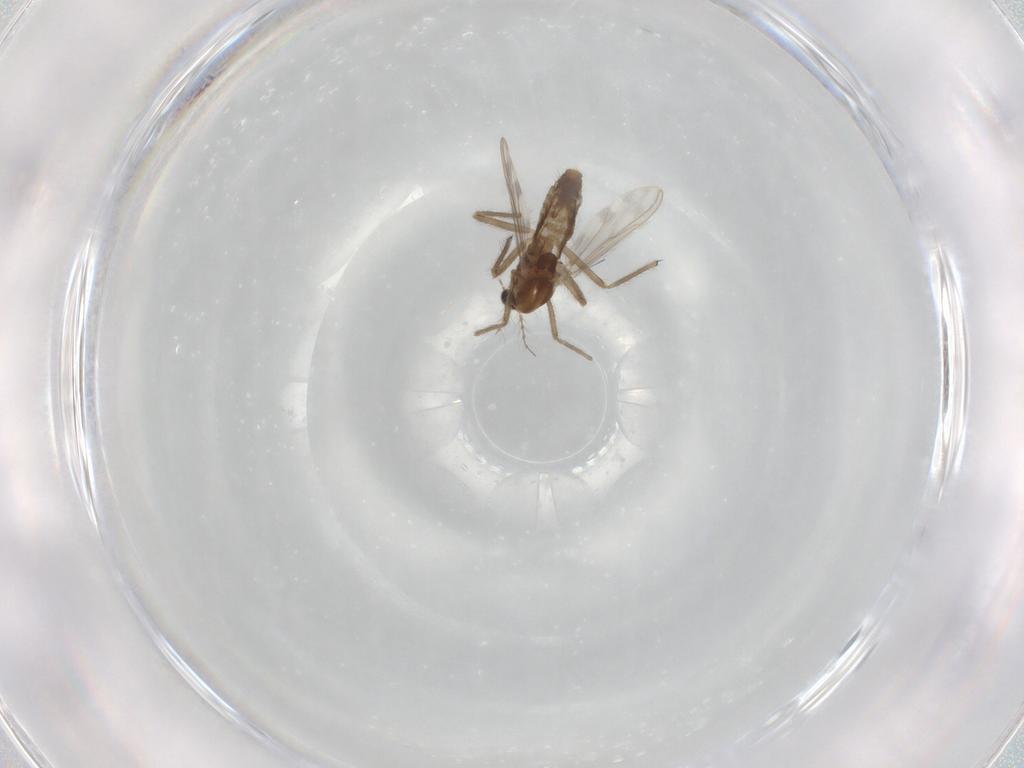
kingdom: Animalia
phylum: Arthropoda
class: Insecta
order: Diptera
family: Chironomidae
